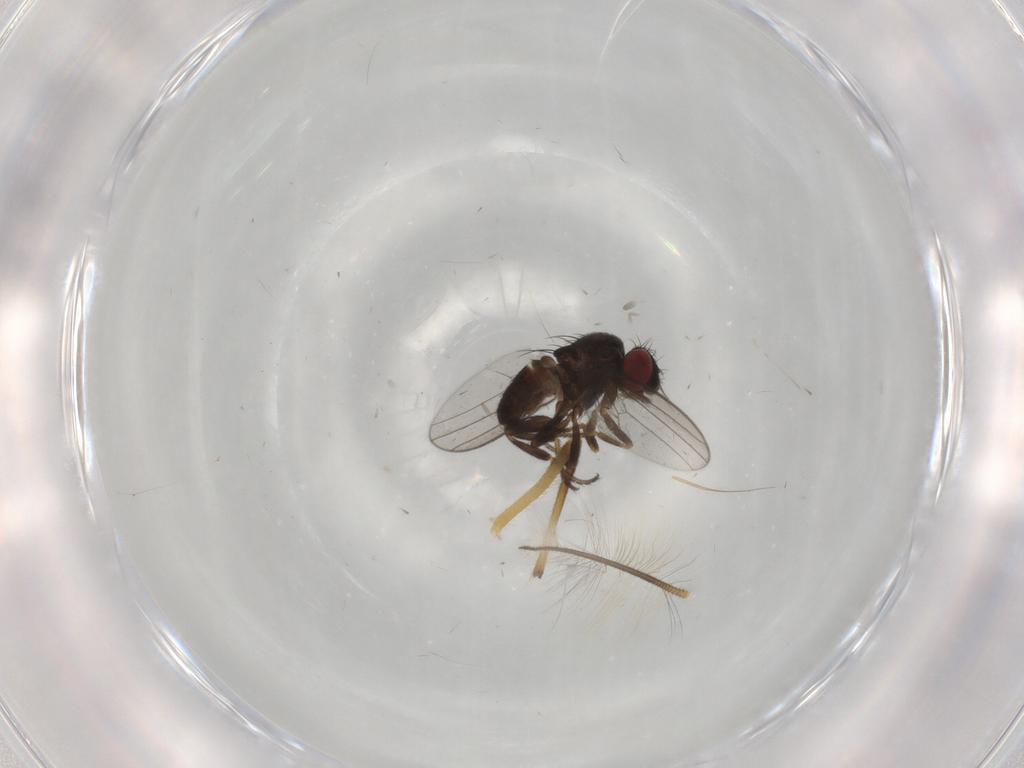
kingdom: Animalia
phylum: Arthropoda
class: Insecta
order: Diptera
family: Milichiidae
